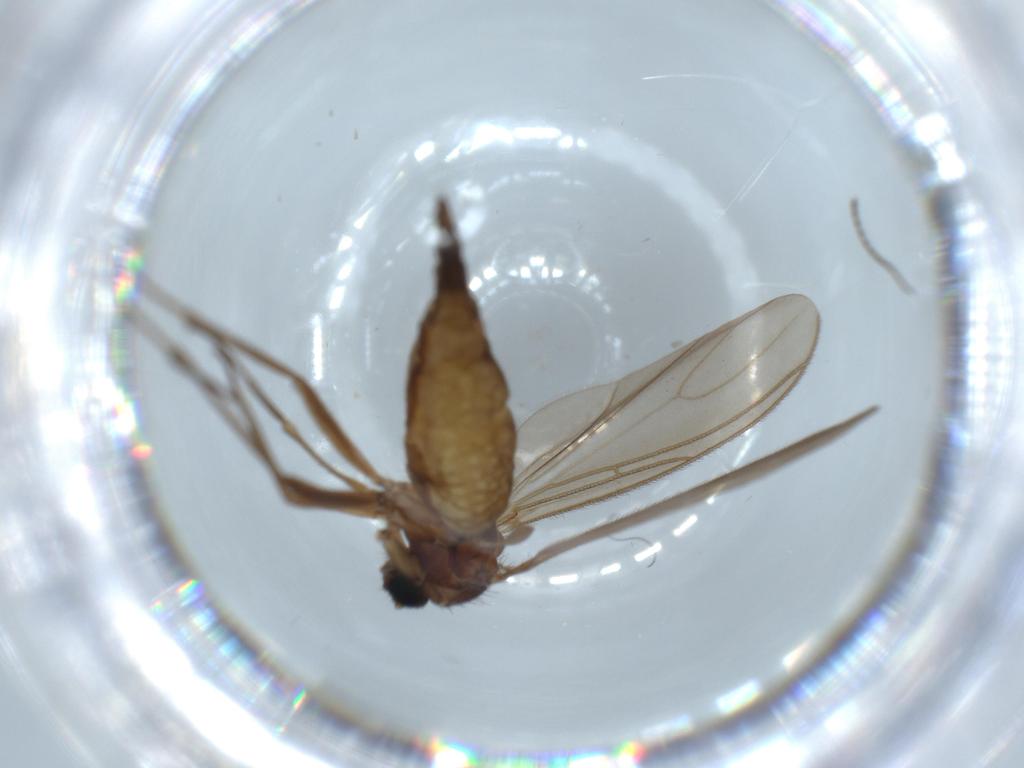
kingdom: Animalia
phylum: Arthropoda
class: Insecta
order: Diptera
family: Sciaridae
